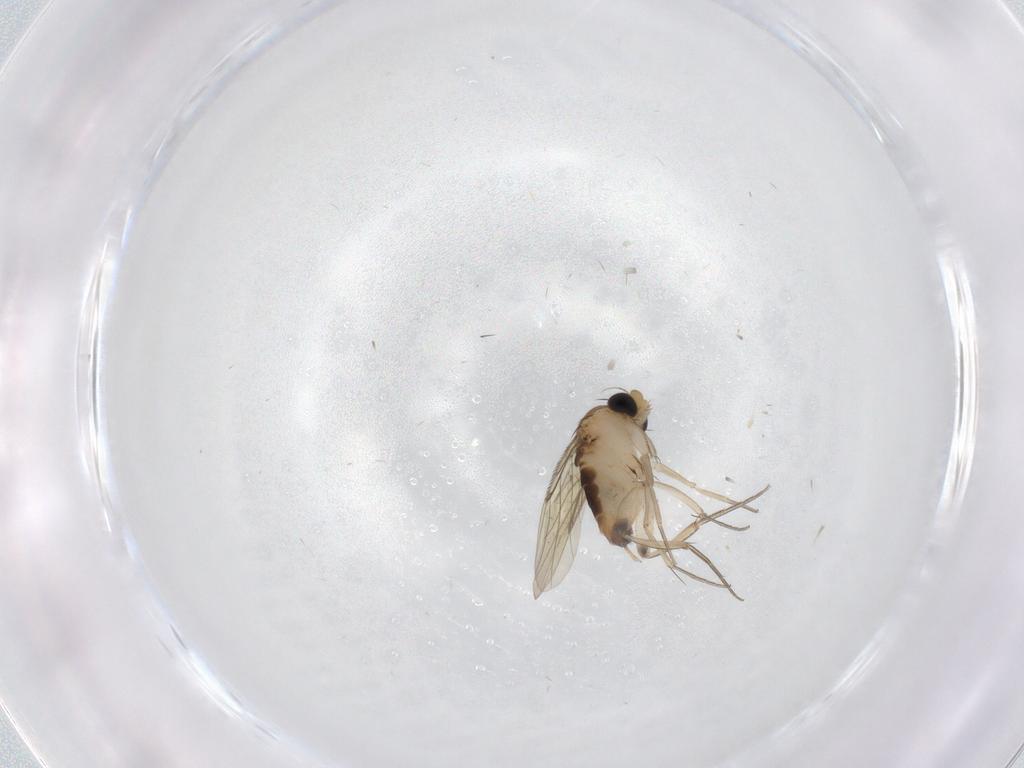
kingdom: Animalia
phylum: Arthropoda
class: Insecta
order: Diptera
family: Phoridae
